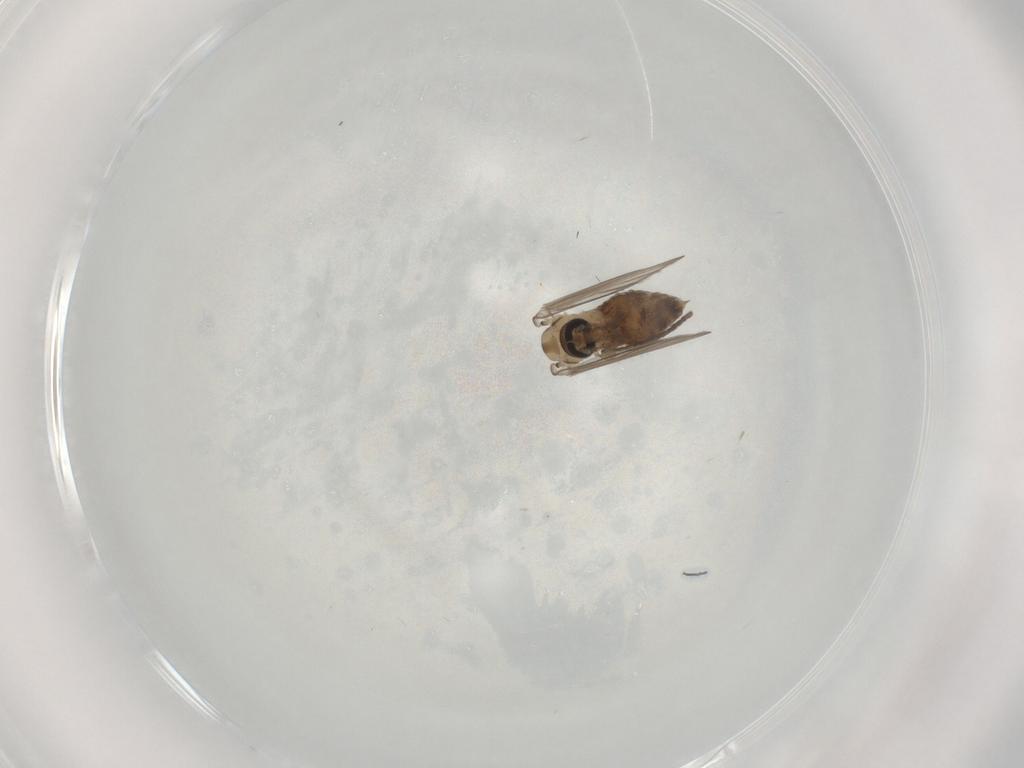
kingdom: Animalia
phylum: Arthropoda
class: Insecta
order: Diptera
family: Psychodidae
